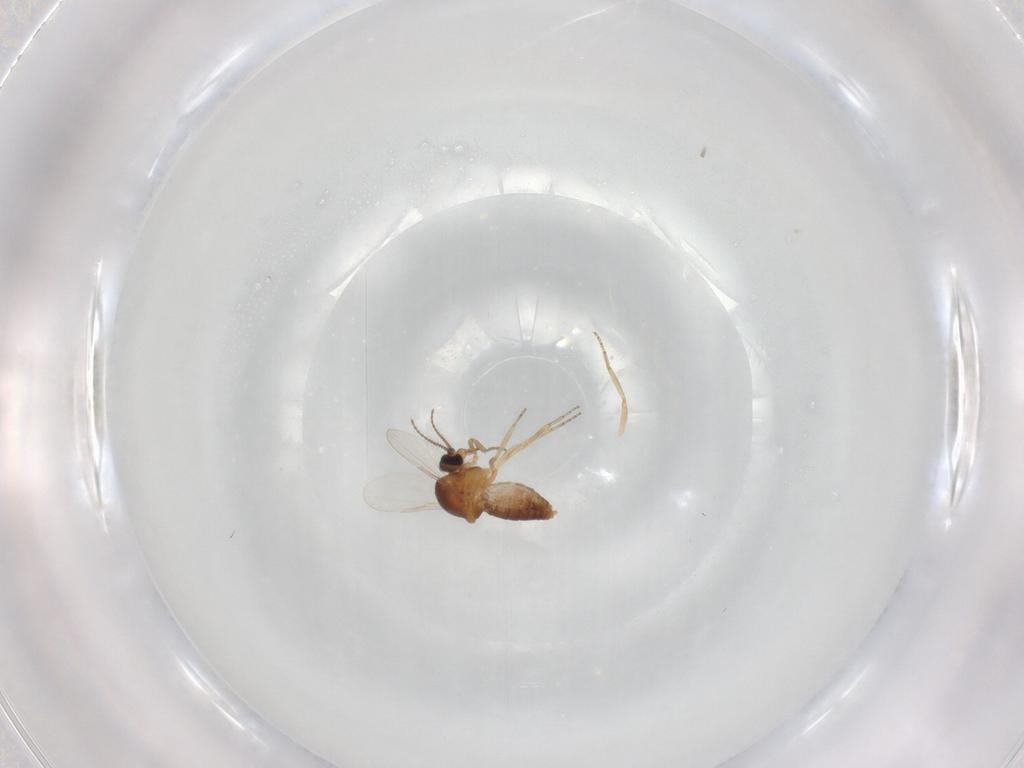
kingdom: Animalia
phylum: Arthropoda
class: Insecta
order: Diptera
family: Ceratopogonidae
